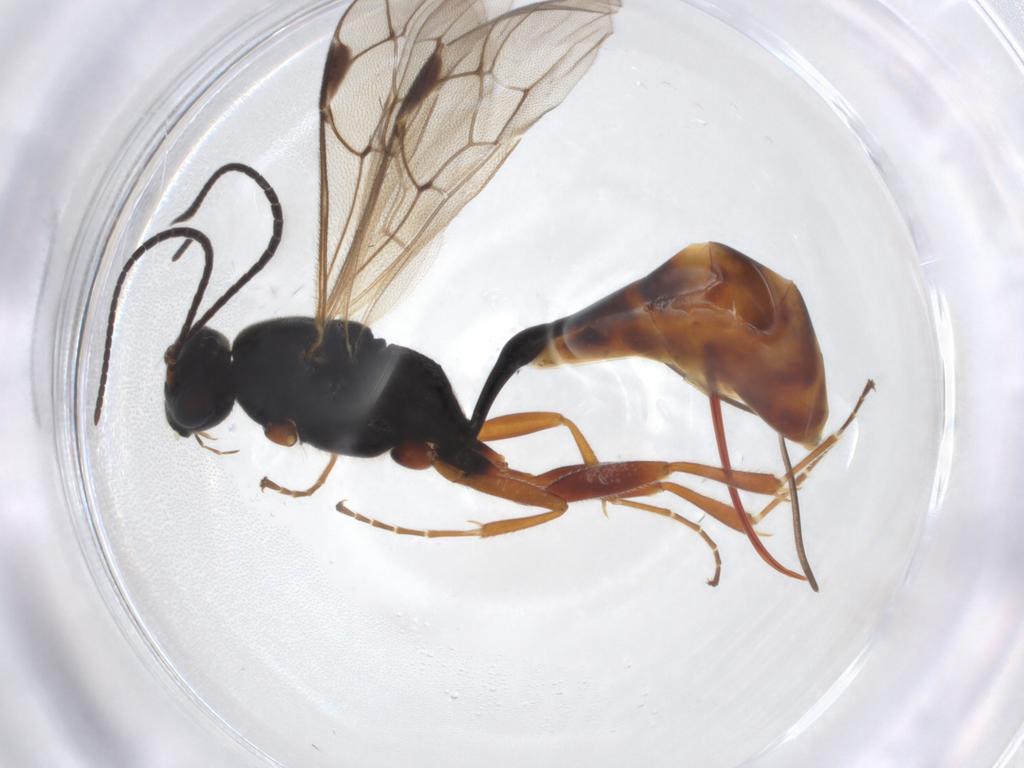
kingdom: Animalia
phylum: Arthropoda
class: Insecta
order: Hymenoptera
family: Ichneumonidae
